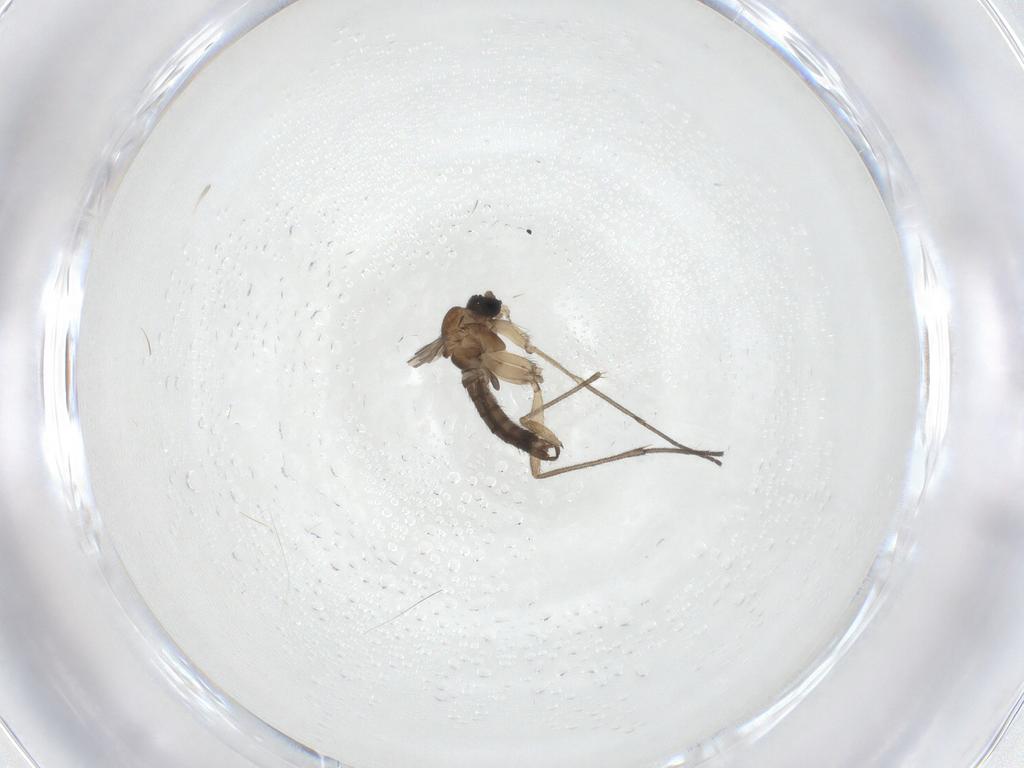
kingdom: Animalia
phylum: Arthropoda
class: Insecta
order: Diptera
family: Sciaridae
